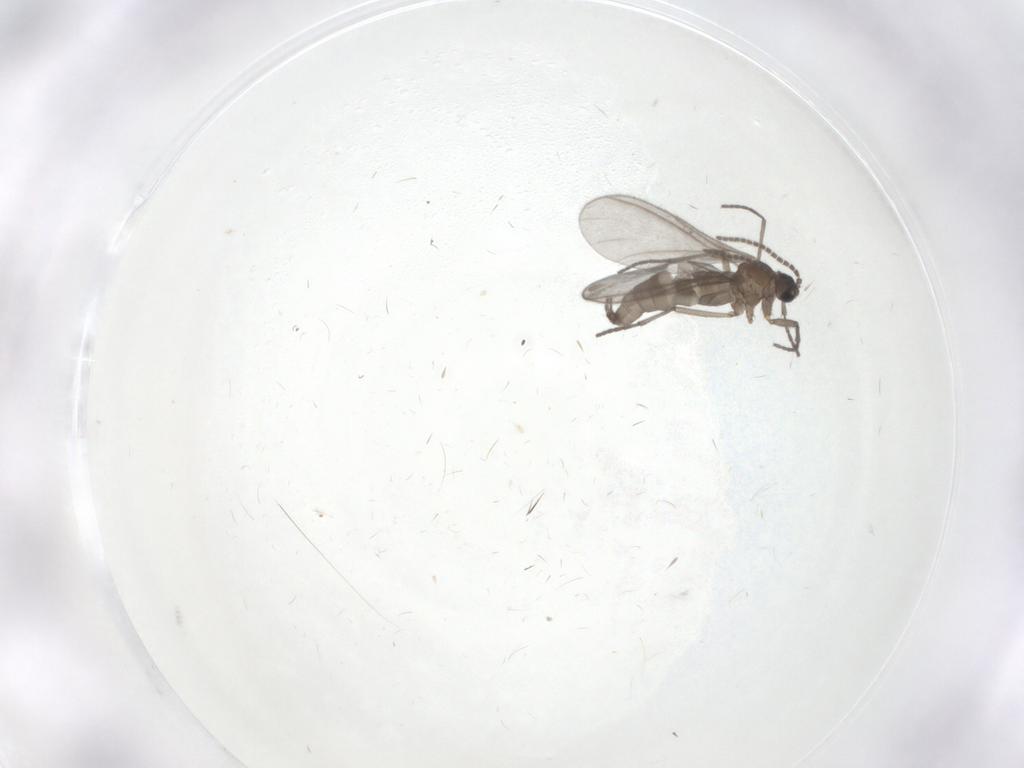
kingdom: Animalia
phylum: Arthropoda
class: Insecta
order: Diptera
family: Sciaridae
